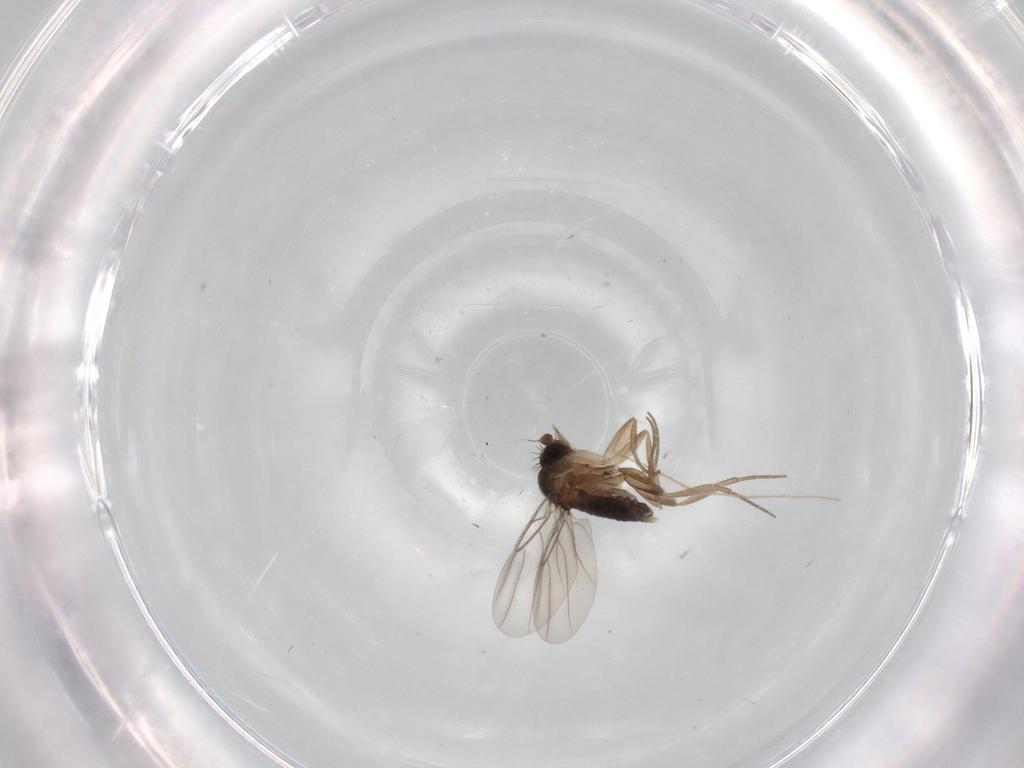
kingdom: Animalia
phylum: Arthropoda
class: Insecta
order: Diptera
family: Phoridae
